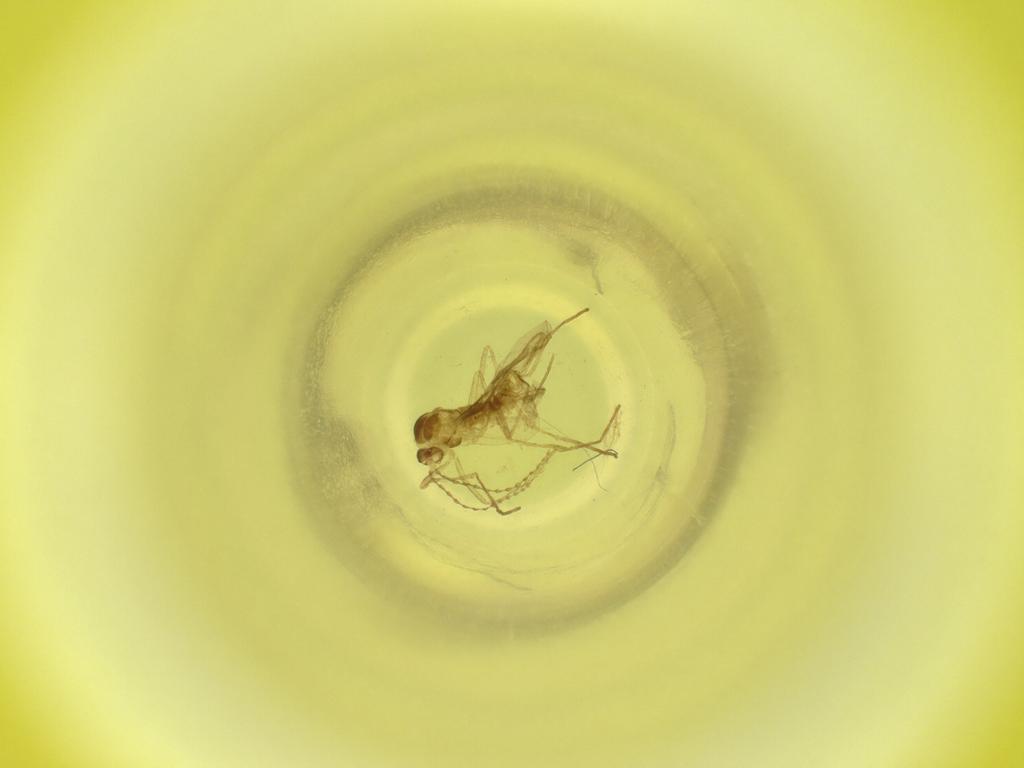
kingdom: Animalia
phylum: Arthropoda
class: Insecta
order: Diptera
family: Cecidomyiidae
